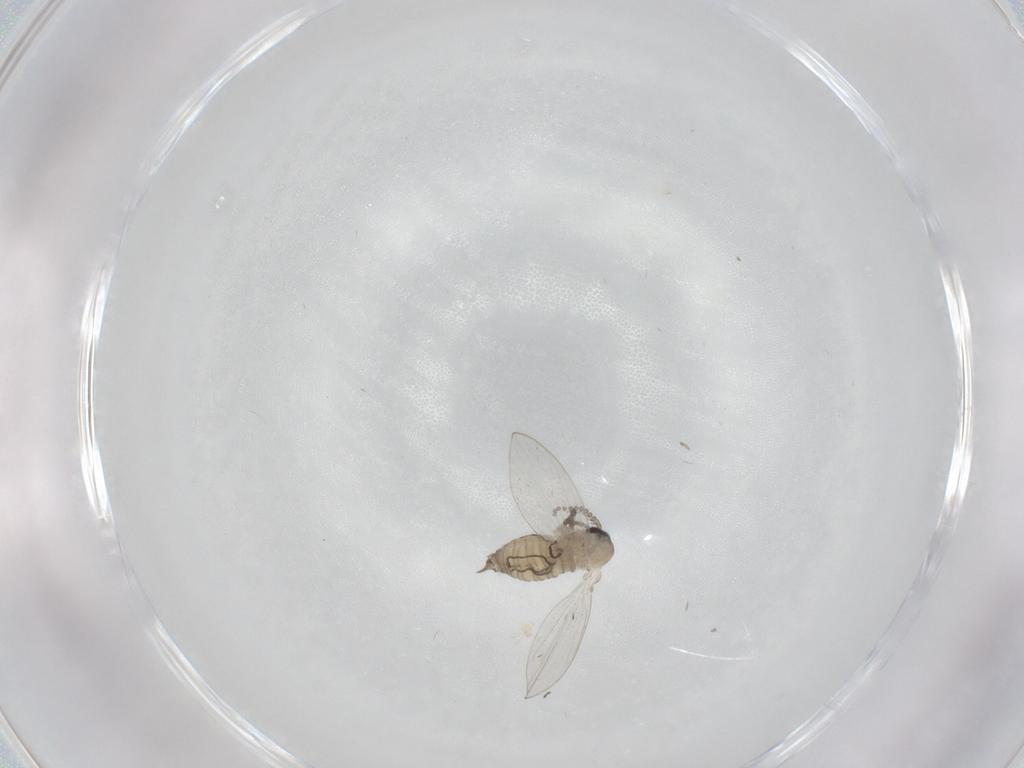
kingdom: Animalia
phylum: Arthropoda
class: Insecta
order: Diptera
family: Psychodidae
